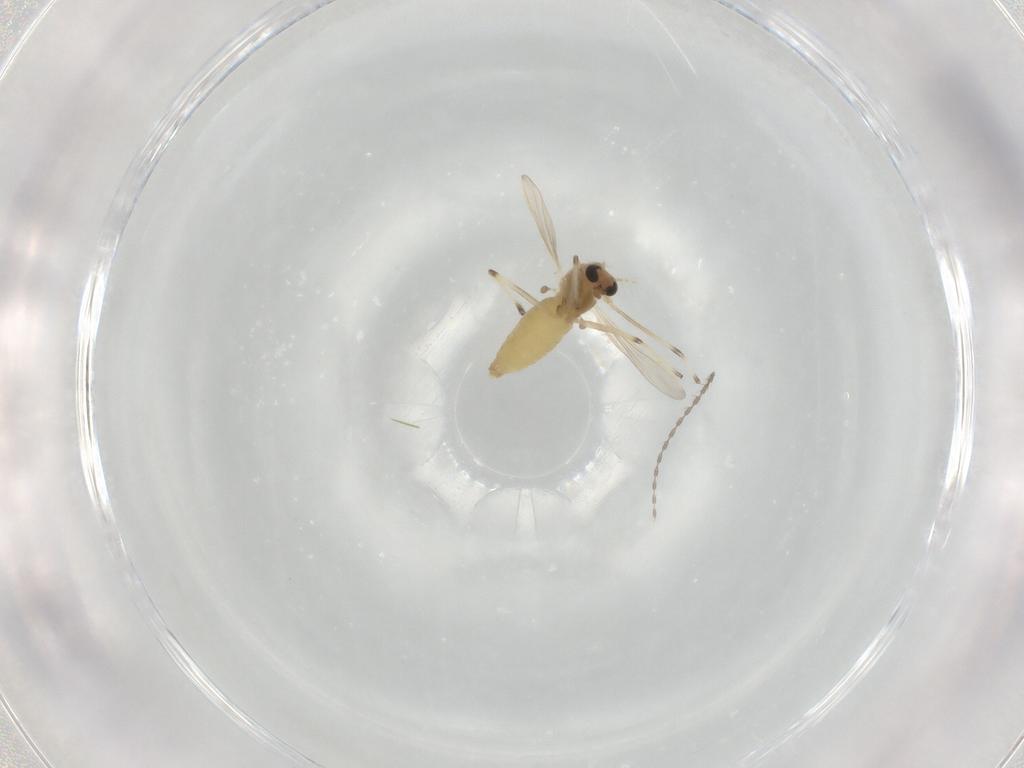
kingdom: Animalia
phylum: Arthropoda
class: Insecta
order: Diptera
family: Chironomidae
